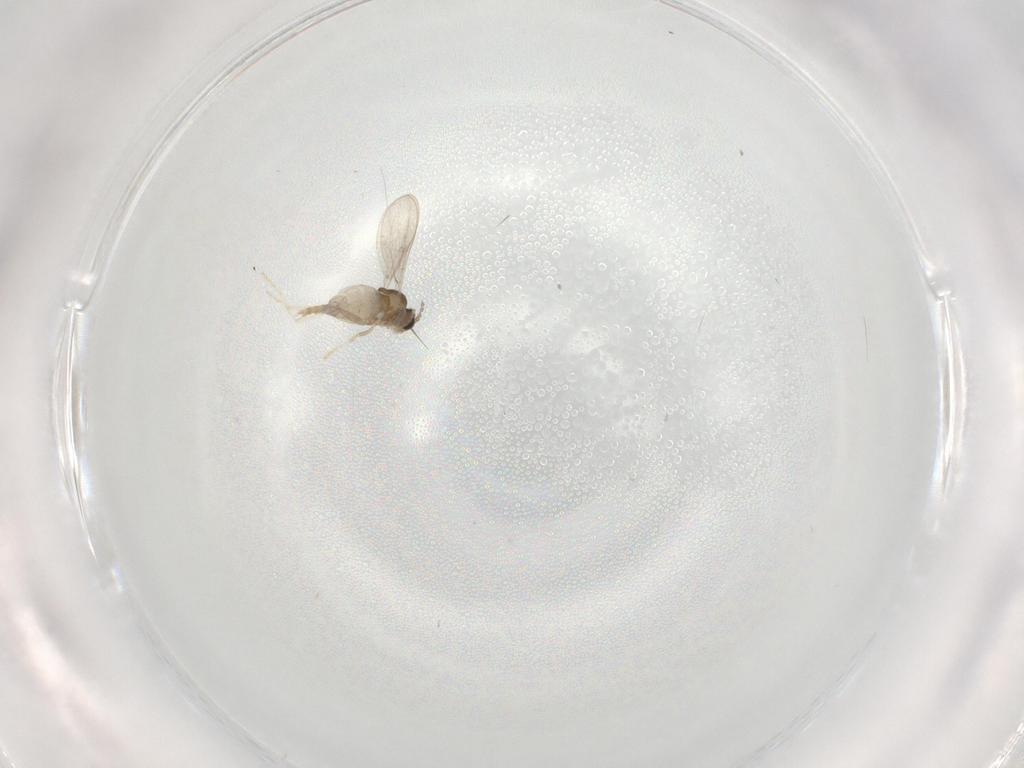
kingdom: Animalia
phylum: Arthropoda
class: Insecta
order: Diptera
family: Cecidomyiidae
